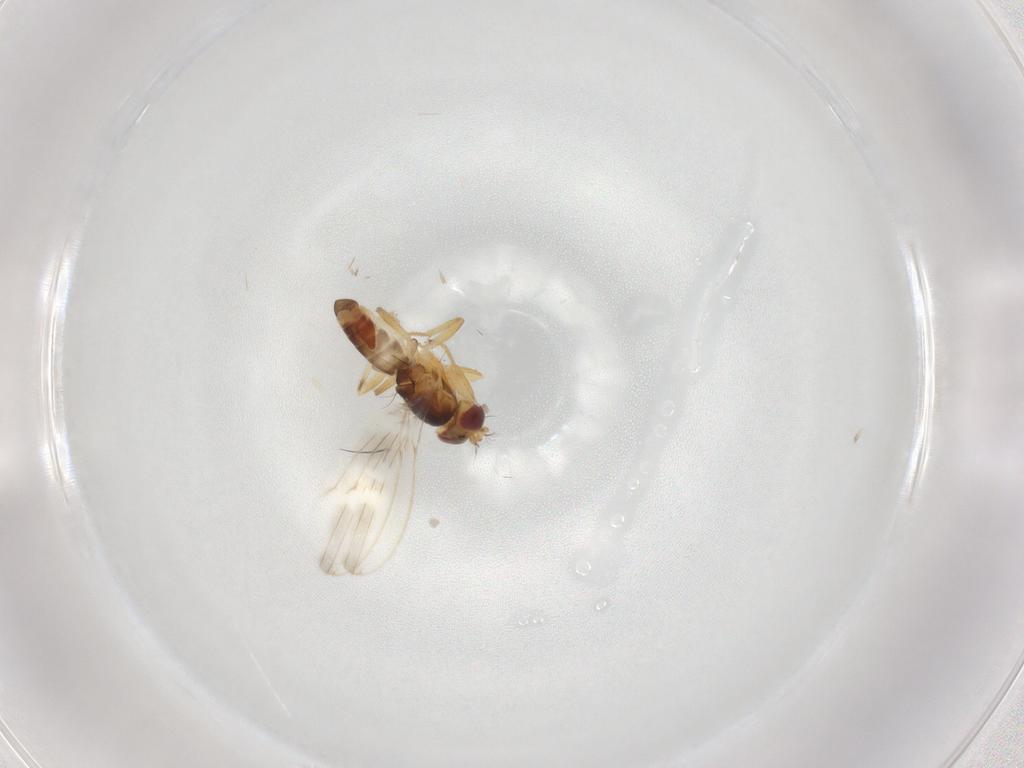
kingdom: Animalia
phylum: Arthropoda
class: Insecta
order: Diptera
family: Periscelididae
